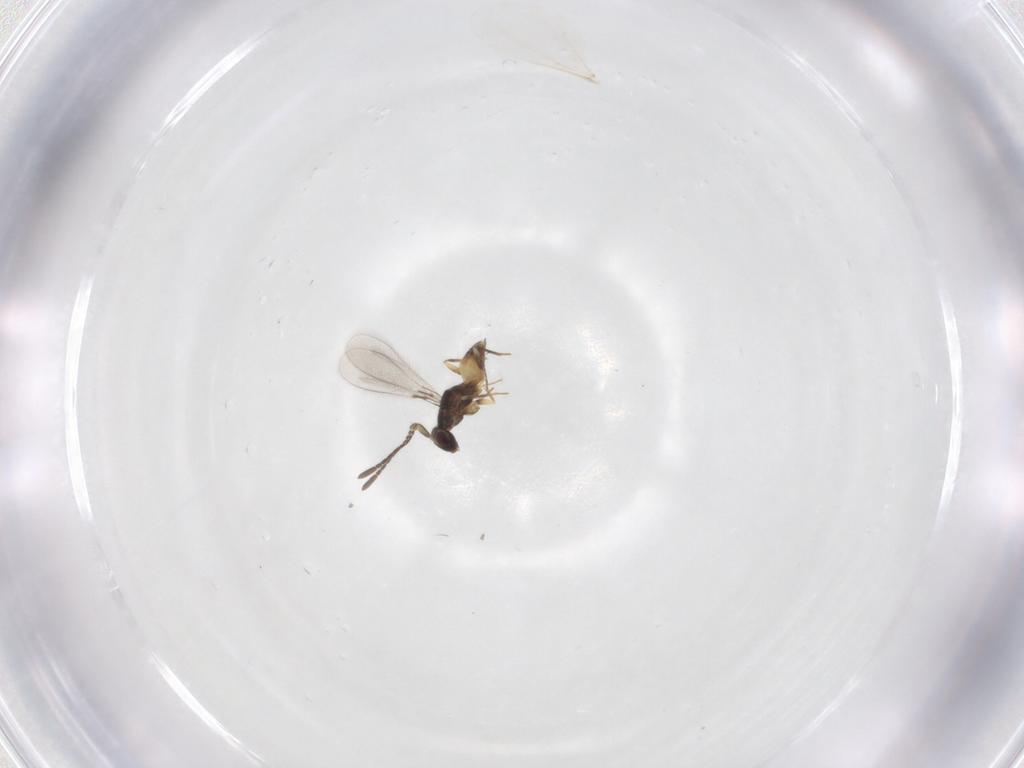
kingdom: Animalia
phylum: Arthropoda
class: Insecta
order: Hymenoptera
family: Mymaridae
